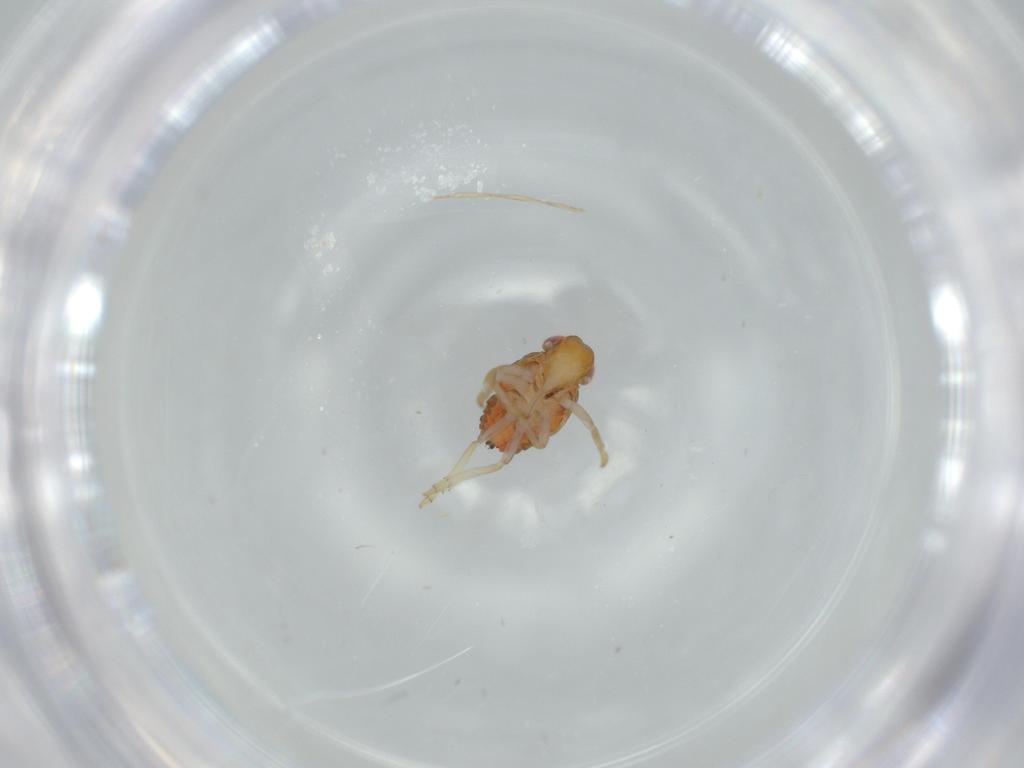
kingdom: Animalia
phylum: Arthropoda
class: Insecta
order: Hemiptera
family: Issidae
